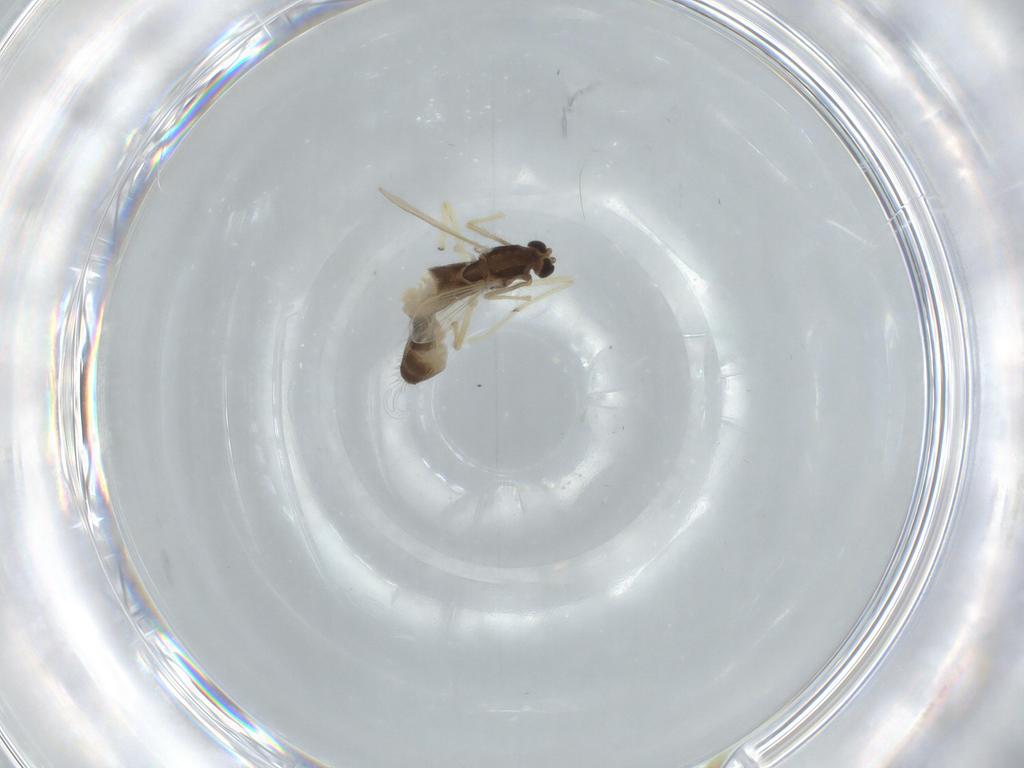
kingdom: Animalia
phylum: Arthropoda
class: Insecta
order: Diptera
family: Chironomidae
